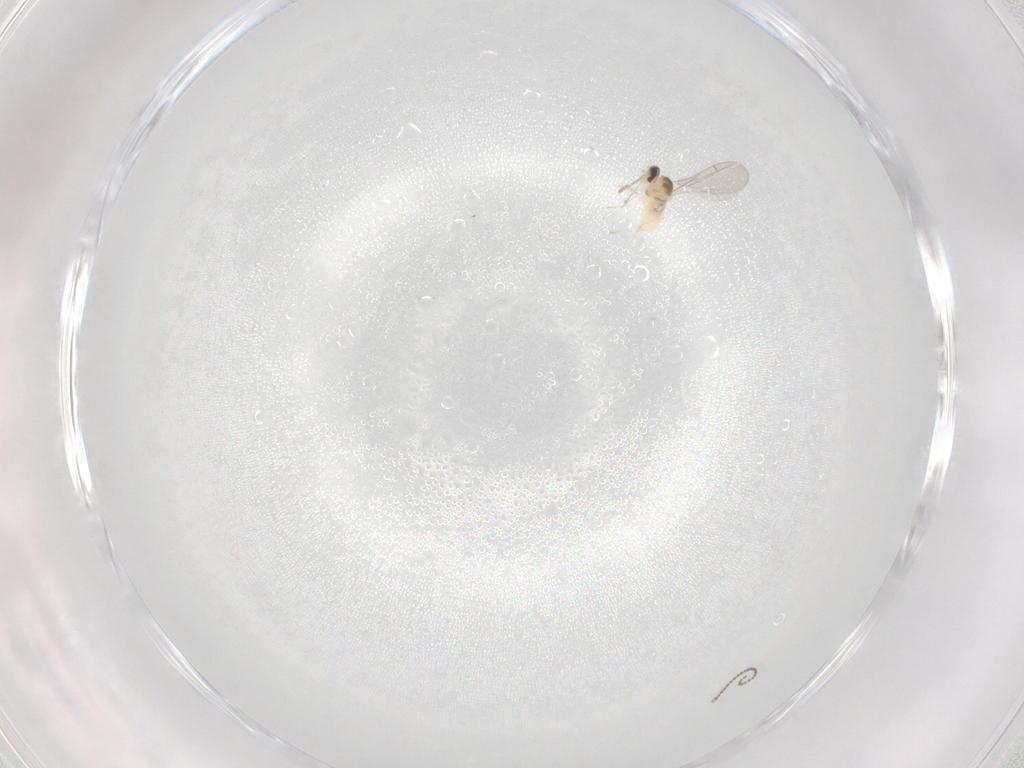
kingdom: Animalia
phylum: Arthropoda
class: Insecta
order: Diptera
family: Cecidomyiidae
